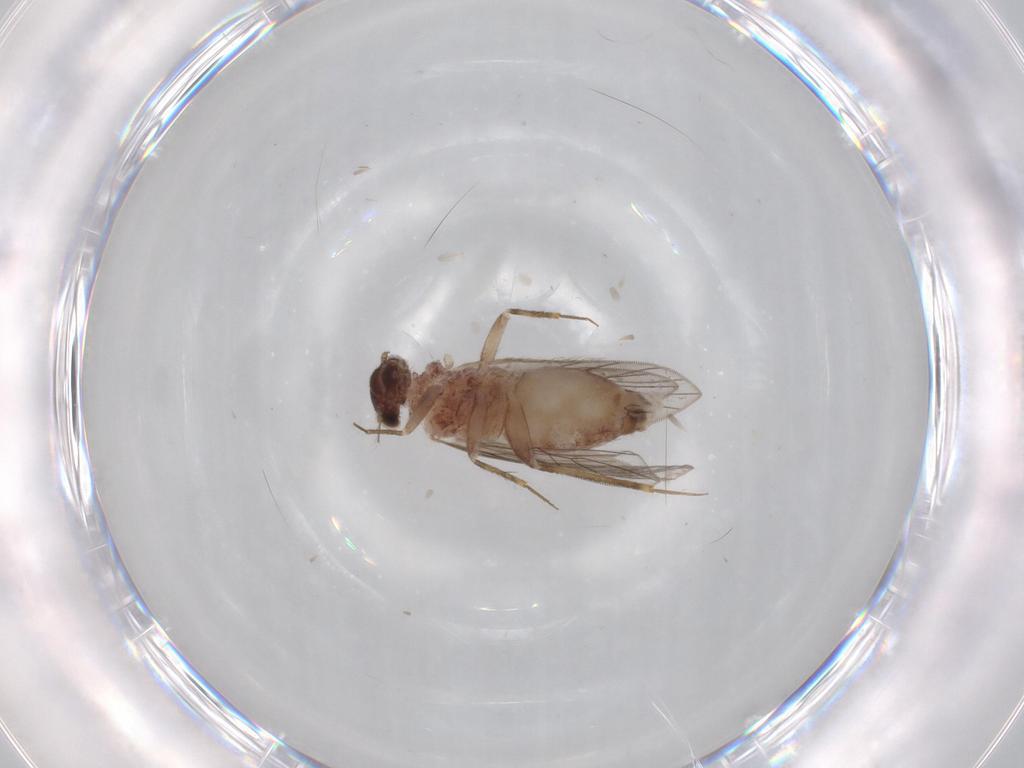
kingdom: Animalia
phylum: Arthropoda
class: Insecta
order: Psocodea
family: Lepidopsocidae
